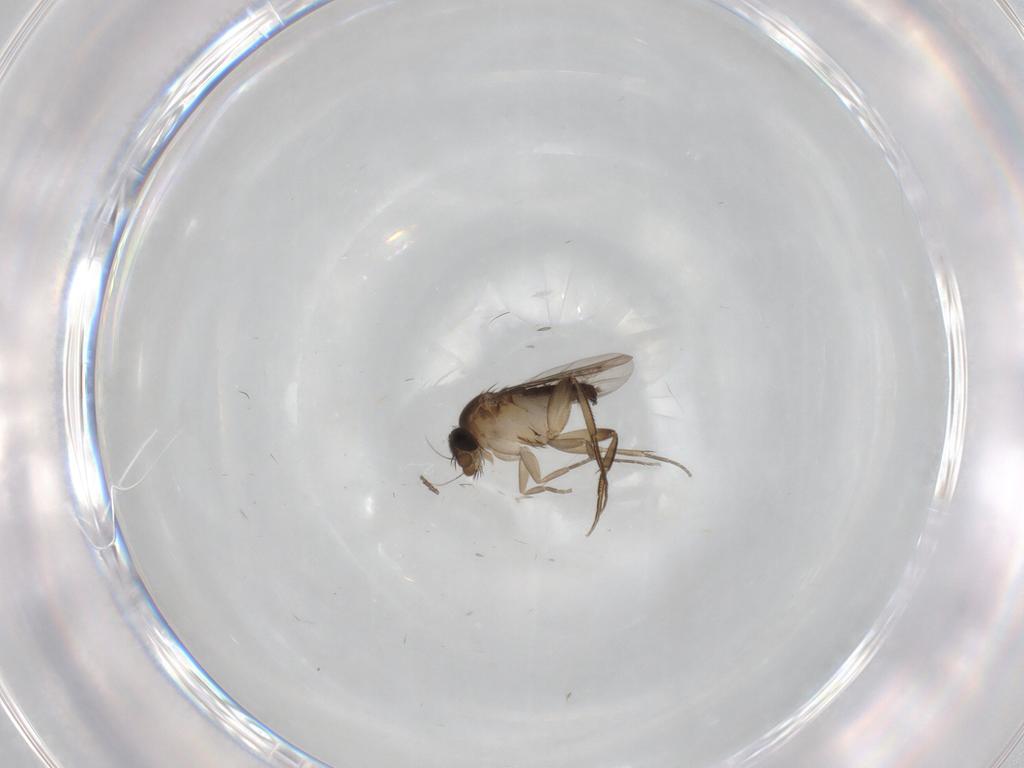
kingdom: Animalia
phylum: Arthropoda
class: Insecta
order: Diptera
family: Phoridae
